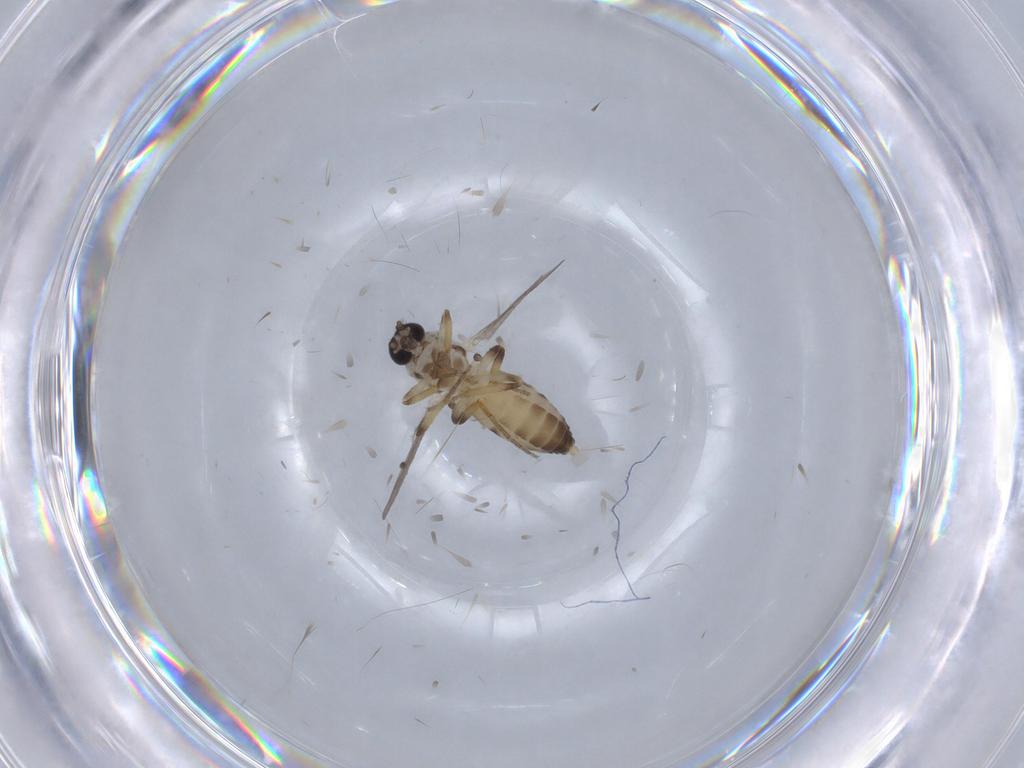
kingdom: Animalia
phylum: Arthropoda
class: Insecta
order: Diptera
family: Ceratopogonidae
